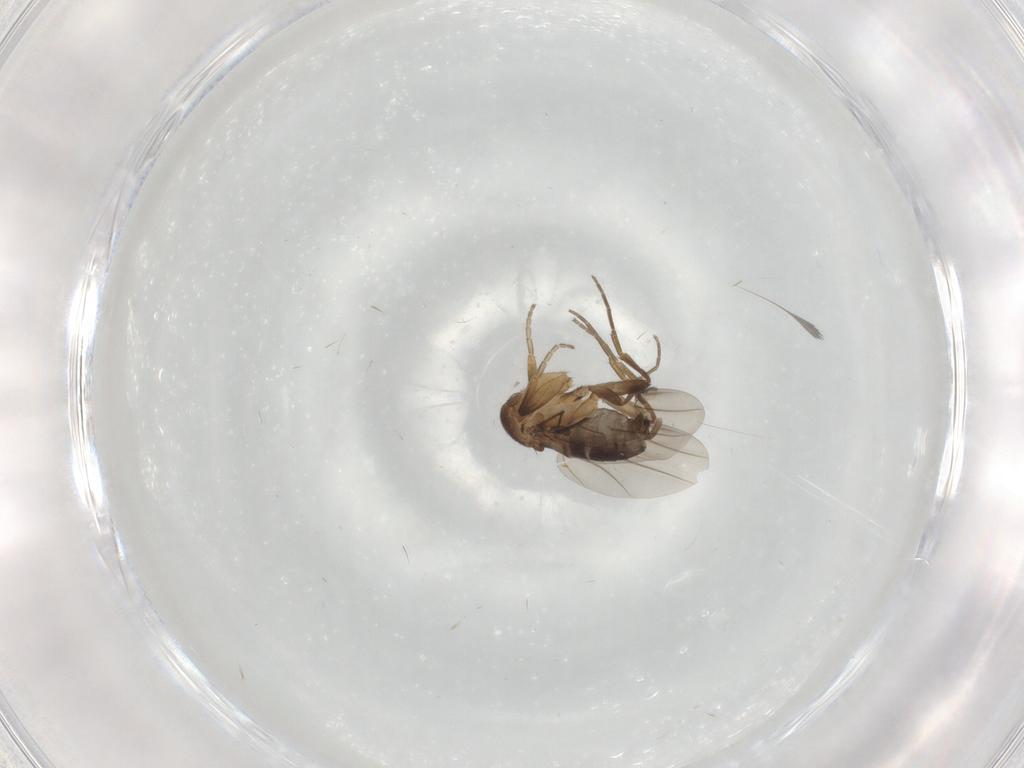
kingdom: Animalia
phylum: Arthropoda
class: Insecta
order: Diptera
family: Phoridae
